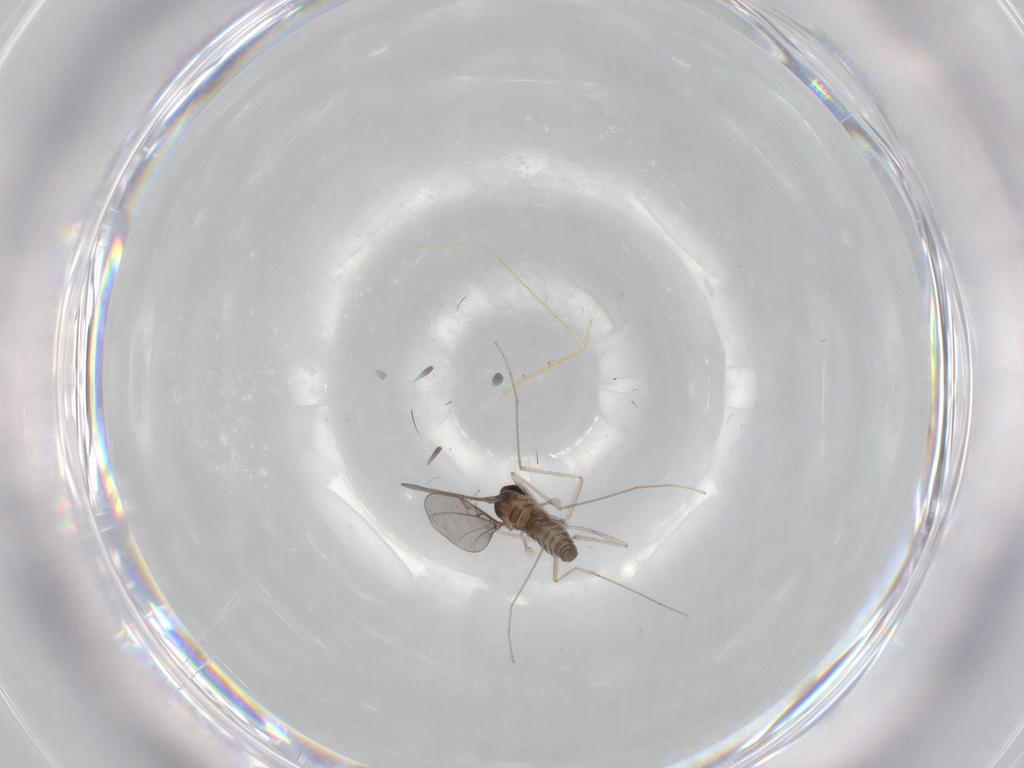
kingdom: Animalia
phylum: Arthropoda
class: Insecta
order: Diptera
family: Cecidomyiidae
